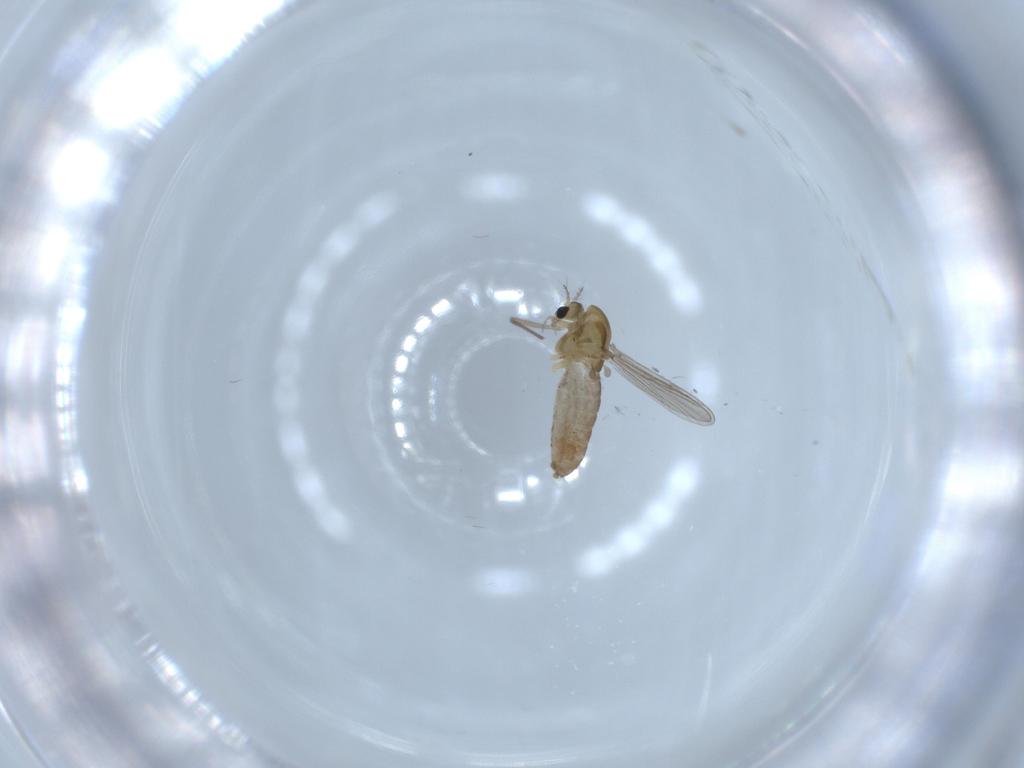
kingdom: Animalia
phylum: Arthropoda
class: Insecta
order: Diptera
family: Chironomidae
